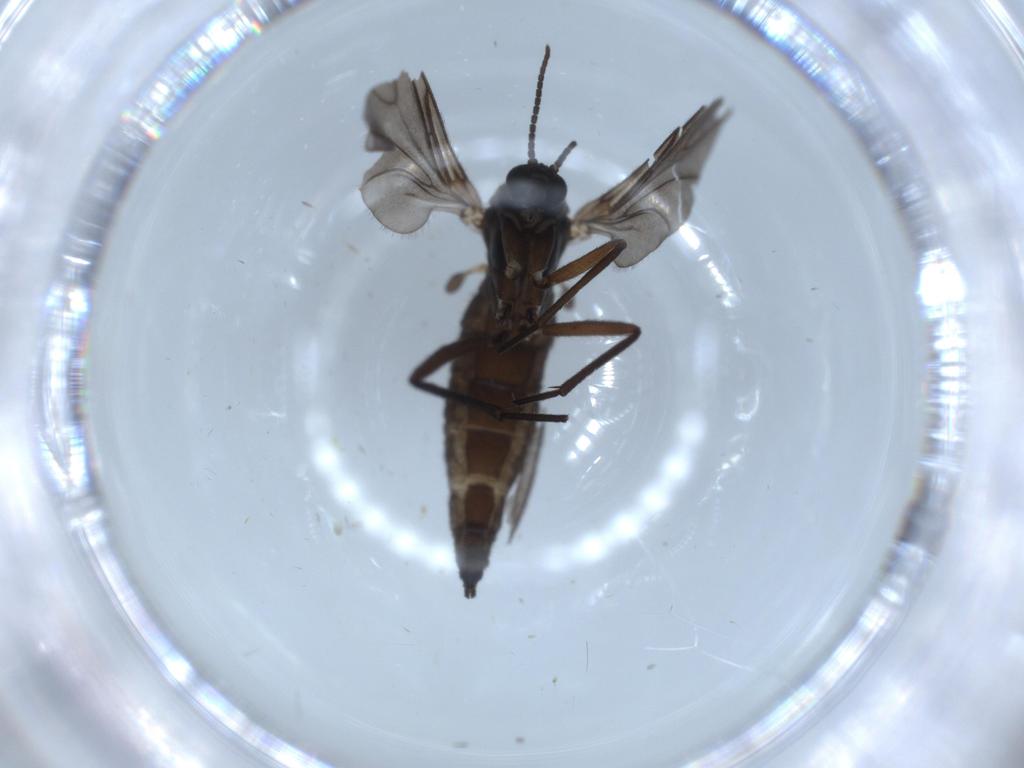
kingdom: Animalia
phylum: Arthropoda
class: Insecta
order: Diptera
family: Sciaridae
